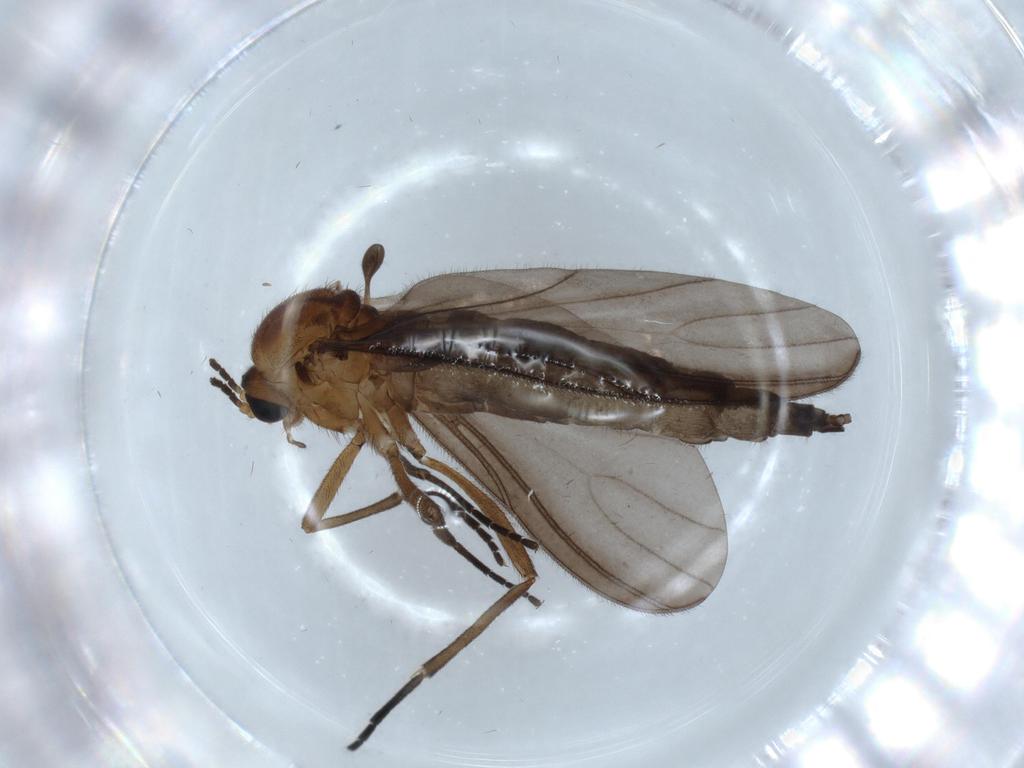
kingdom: Animalia
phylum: Arthropoda
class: Insecta
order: Diptera
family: Sciaridae
